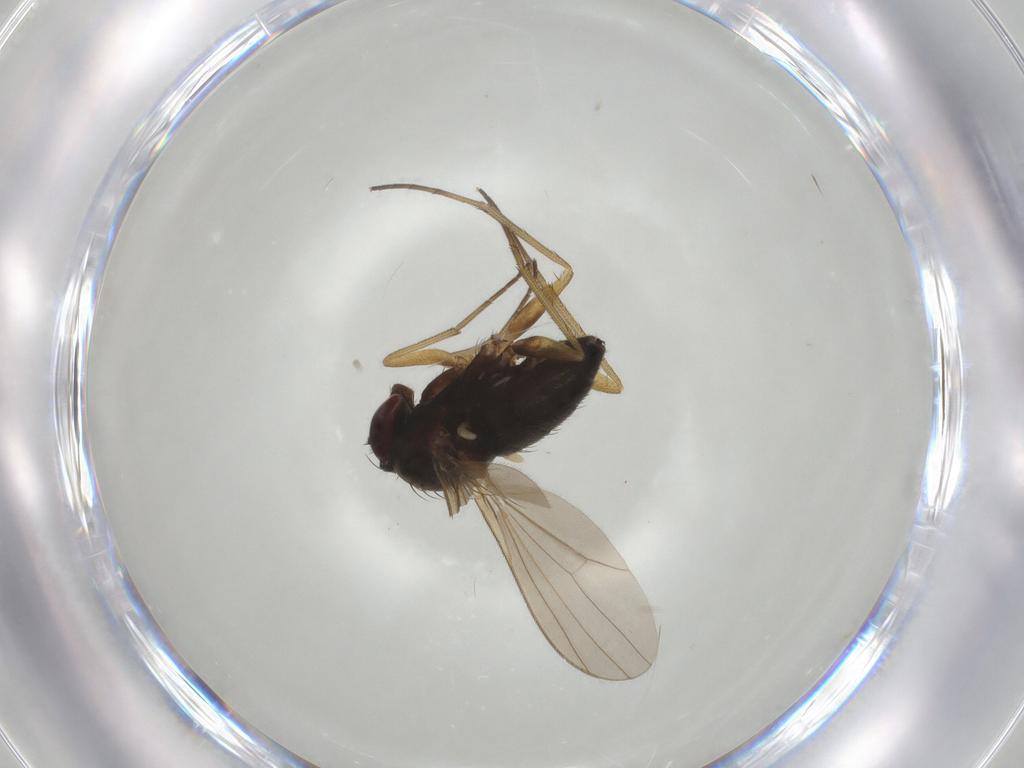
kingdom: Animalia
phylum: Arthropoda
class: Insecta
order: Diptera
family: Dolichopodidae
